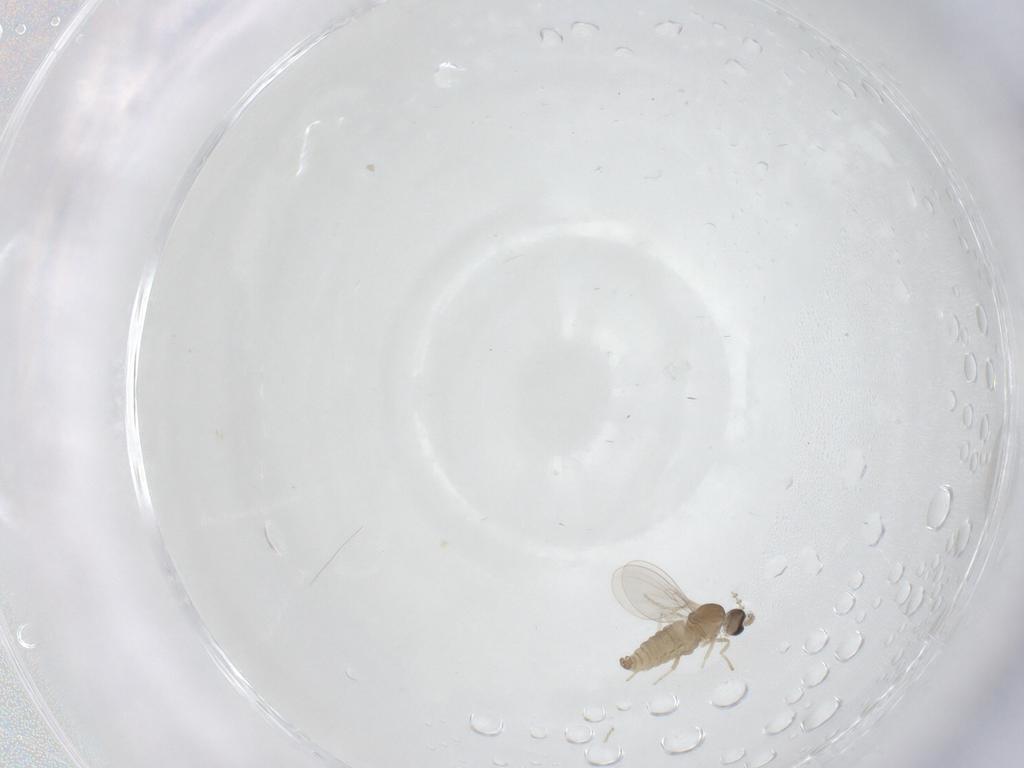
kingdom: Animalia
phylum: Arthropoda
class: Insecta
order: Diptera
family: Cecidomyiidae
